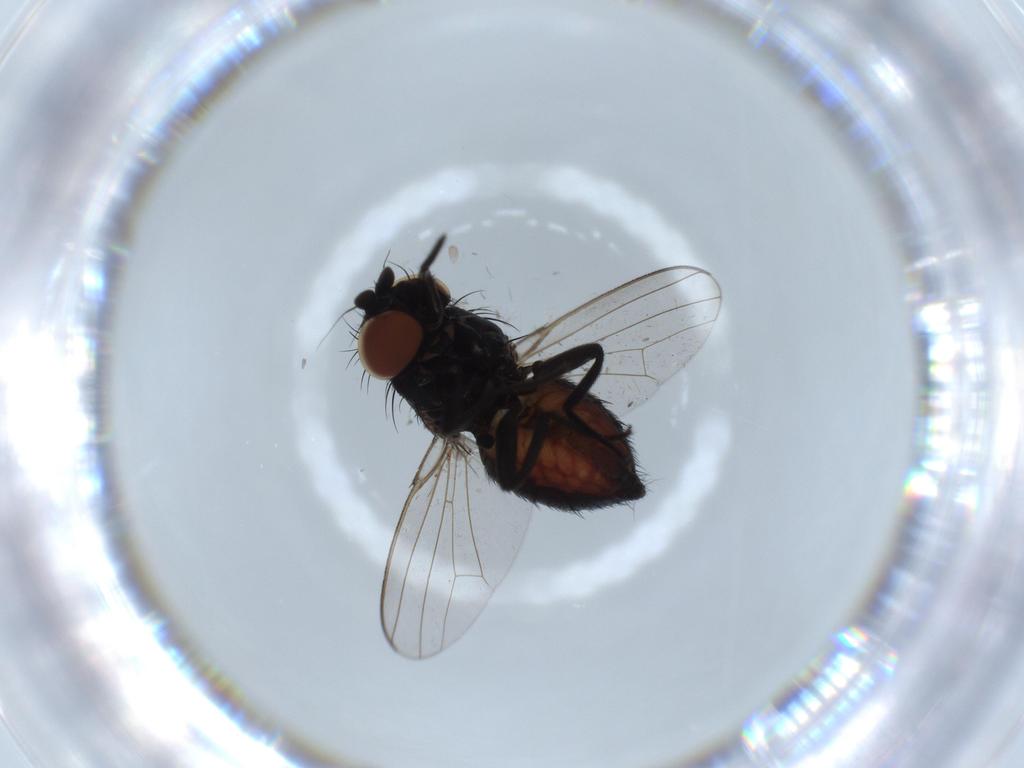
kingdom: Animalia
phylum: Arthropoda
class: Insecta
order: Diptera
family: Milichiidae
